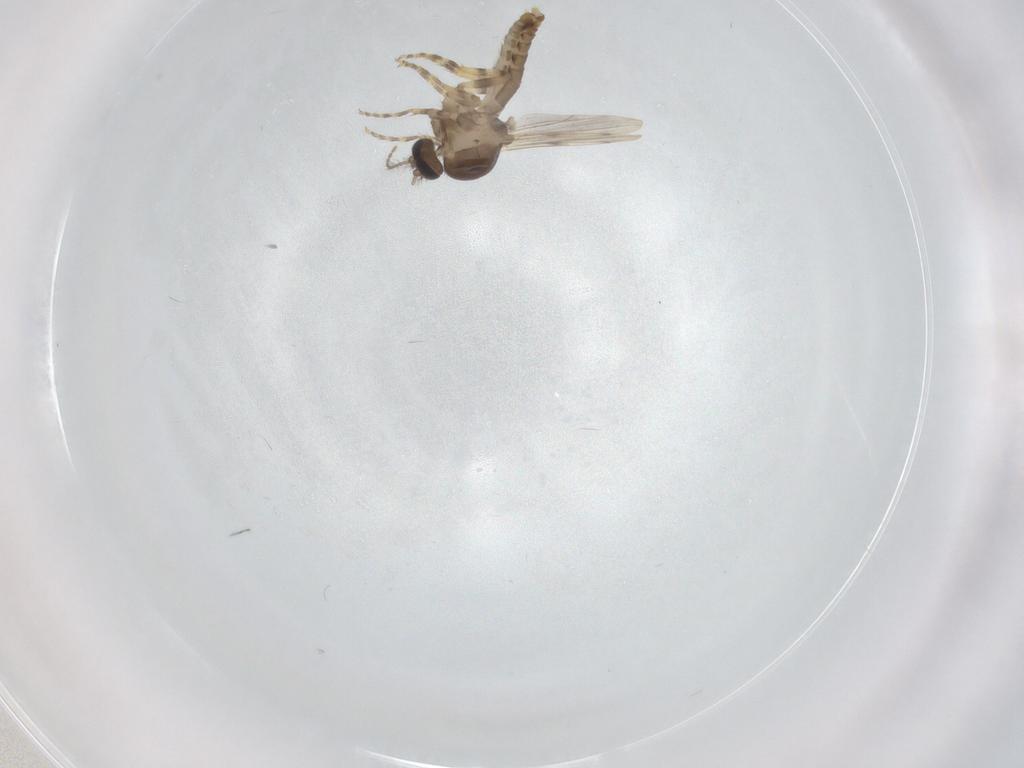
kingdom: Animalia
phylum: Arthropoda
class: Insecta
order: Diptera
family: Ceratopogonidae
